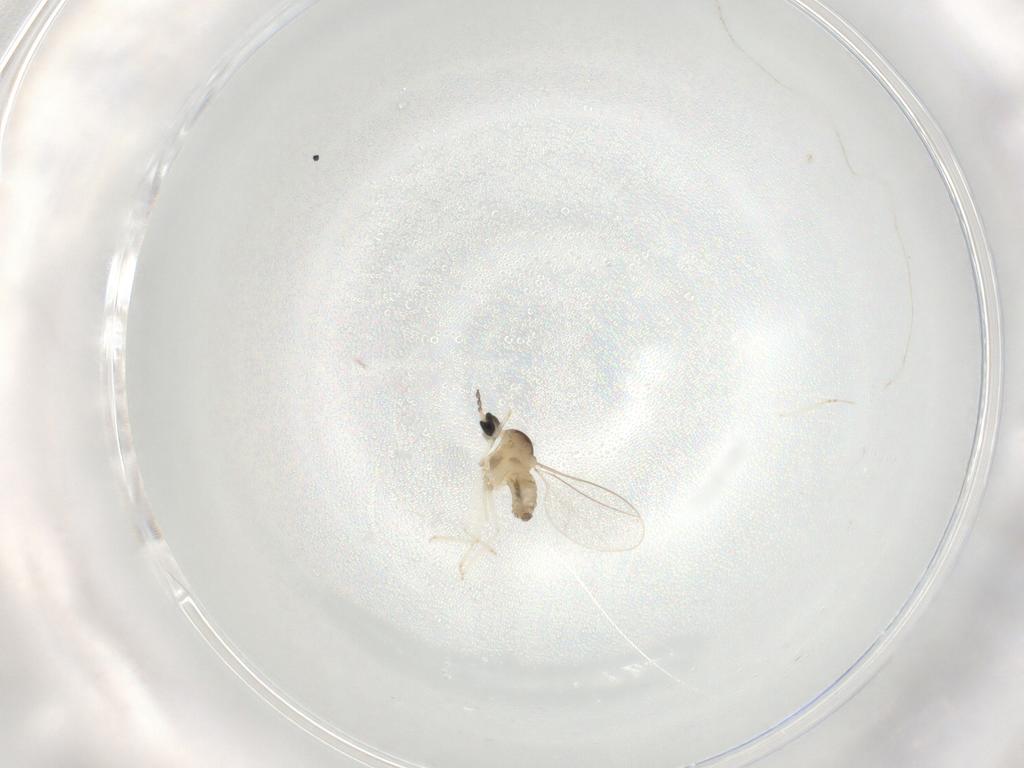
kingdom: Animalia
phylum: Arthropoda
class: Insecta
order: Diptera
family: Cecidomyiidae
